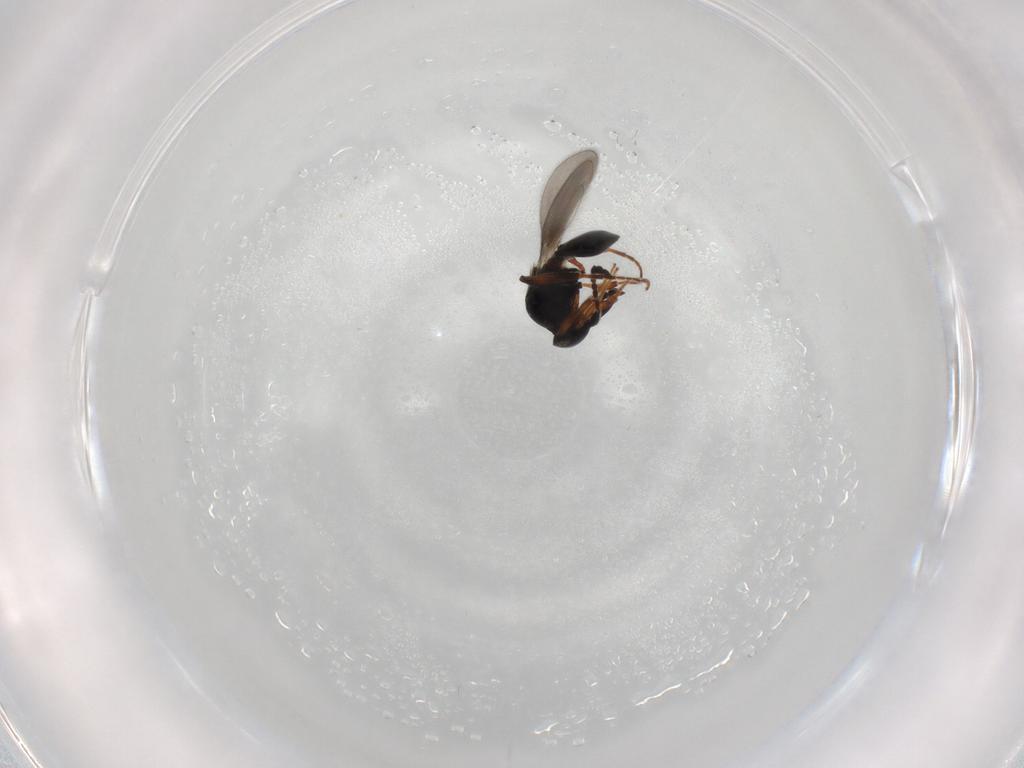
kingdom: Animalia
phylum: Arthropoda
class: Insecta
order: Hymenoptera
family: Platygastridae
